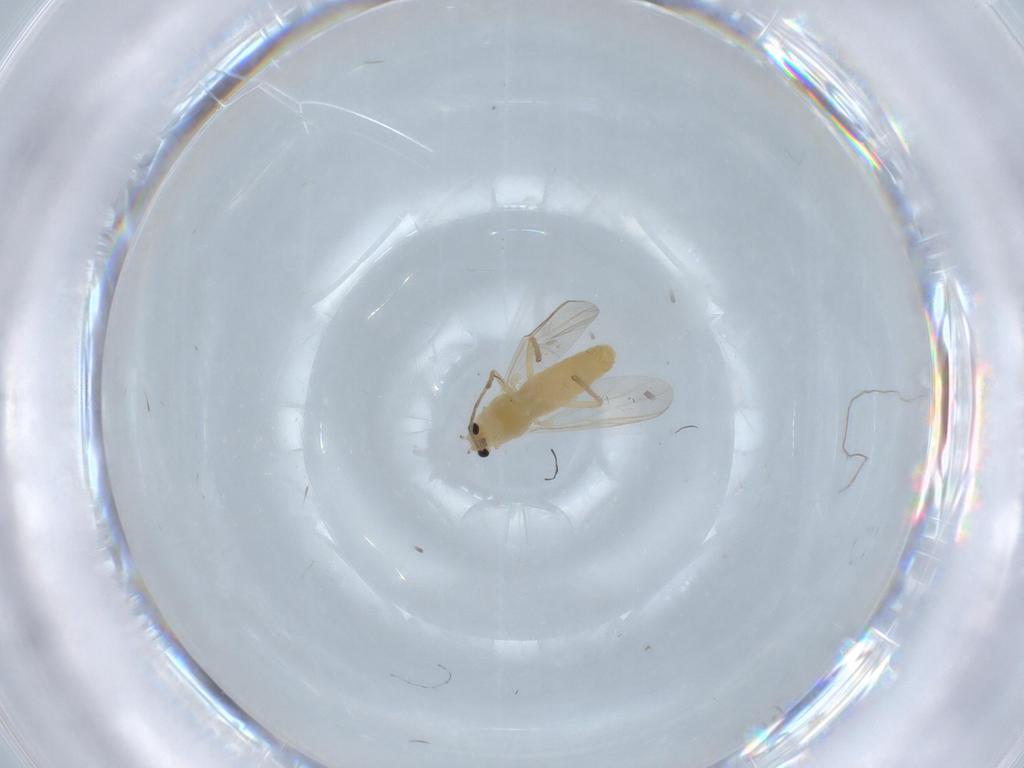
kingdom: Animalia
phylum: Arthropoda
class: Insecta
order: Diptera
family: Chironomidae
